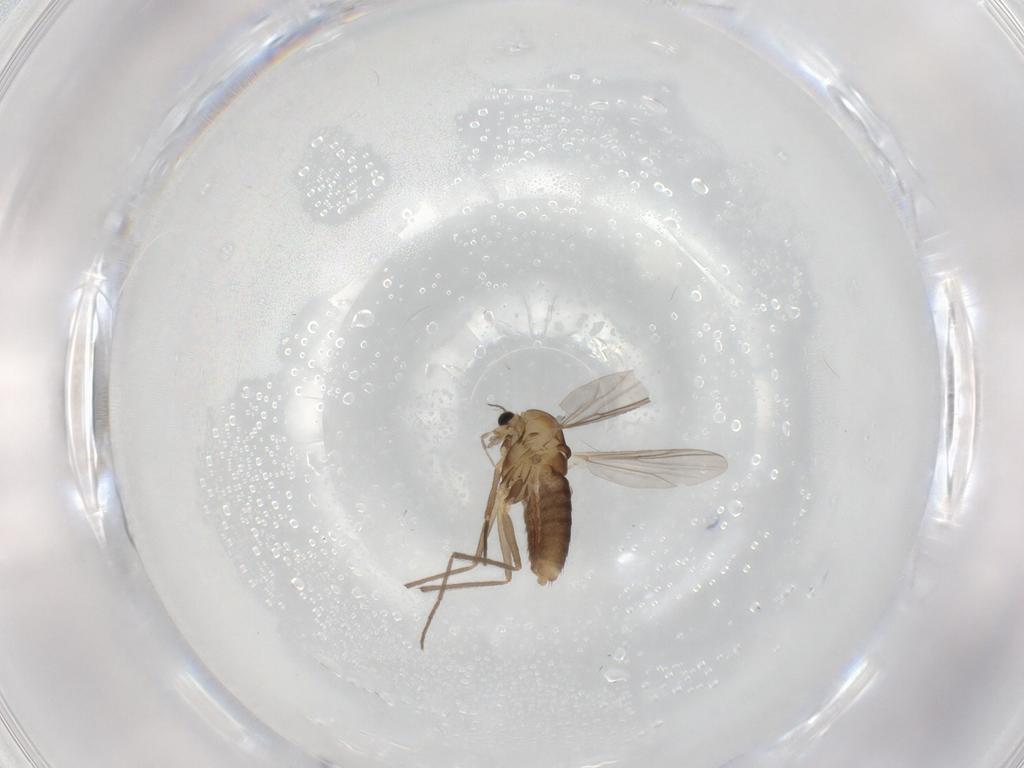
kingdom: Animalia
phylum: Arthropoda
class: Insecta
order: Diptera
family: Chironomidae
